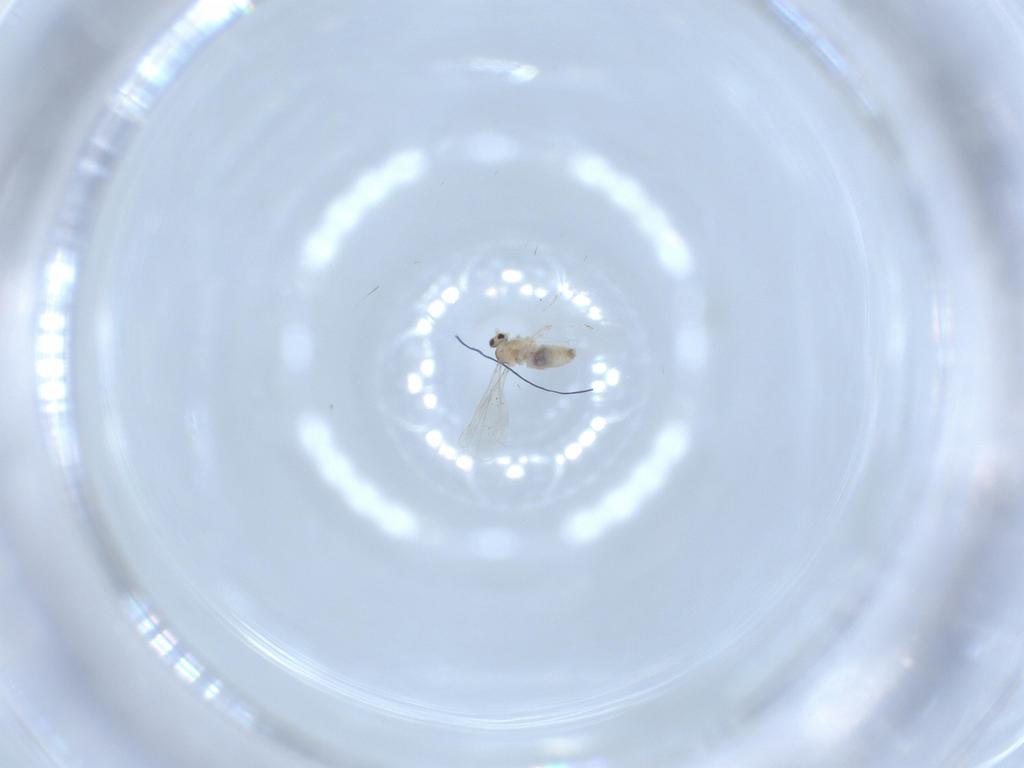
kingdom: Animalia
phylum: Arthropoda
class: Insecta
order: Diptera
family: Cecidomyiidae
